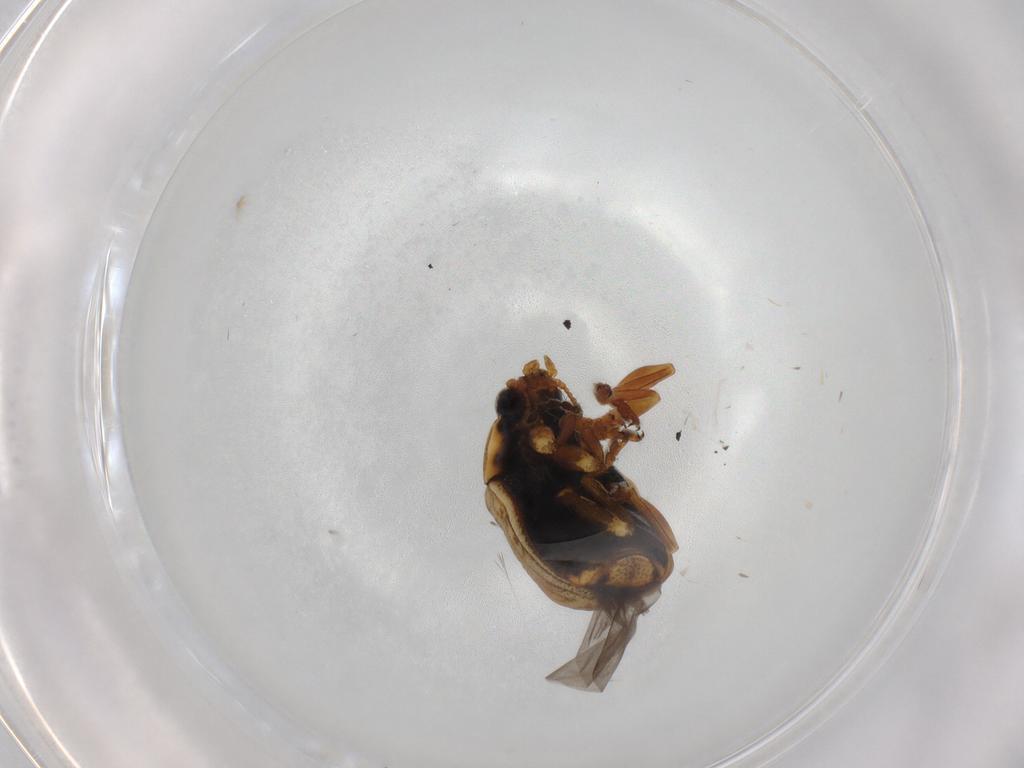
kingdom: Animalia
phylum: Arthropoda
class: Insecta
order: Coleoptera
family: Chrysomelidae
